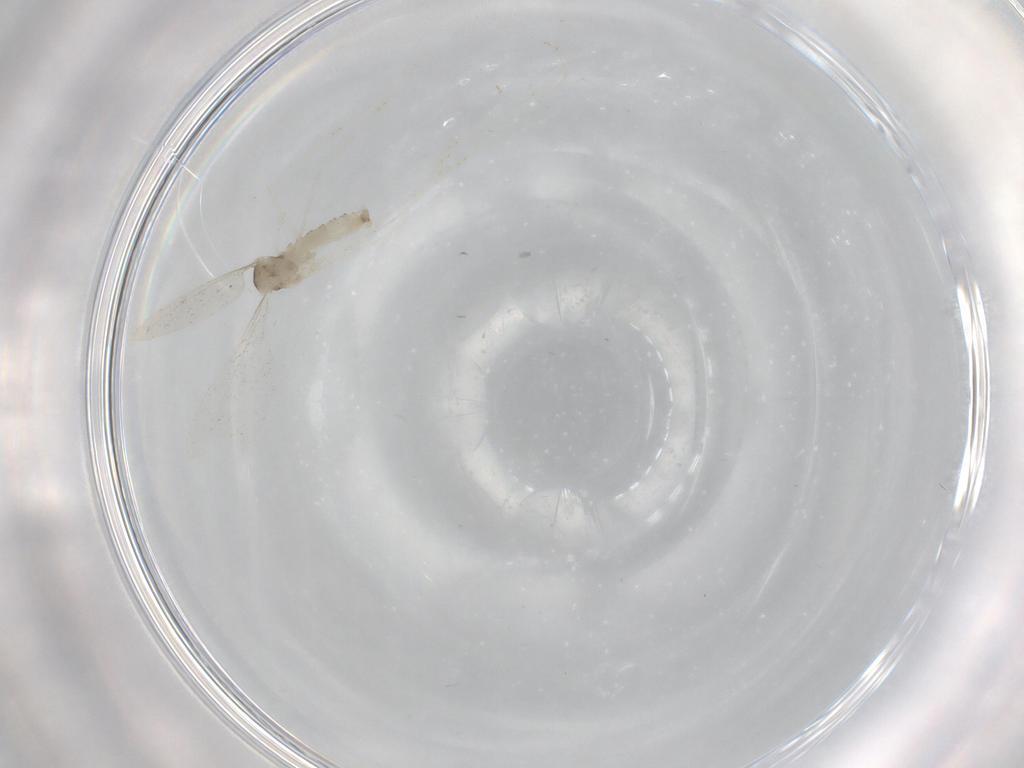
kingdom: Animalia
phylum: Arthropoda
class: Insecta
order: Diptera
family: Cecidomyiidae
